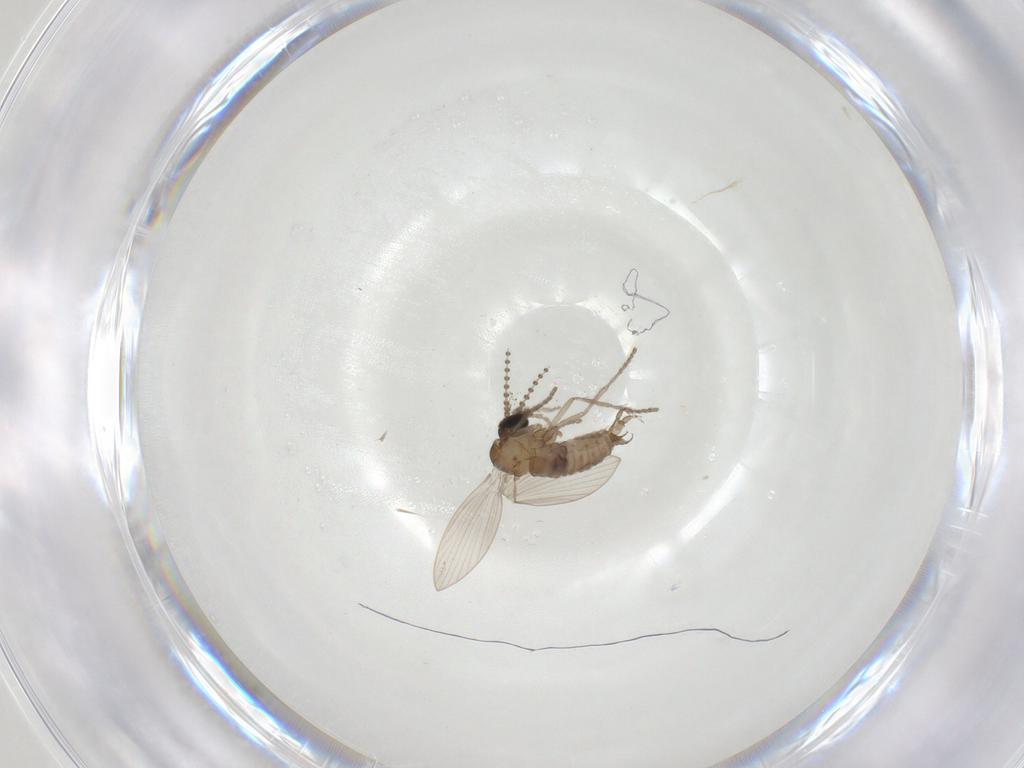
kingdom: Animalia
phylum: Arthropoda
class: Insecta
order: Diptera
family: Psychodidae
